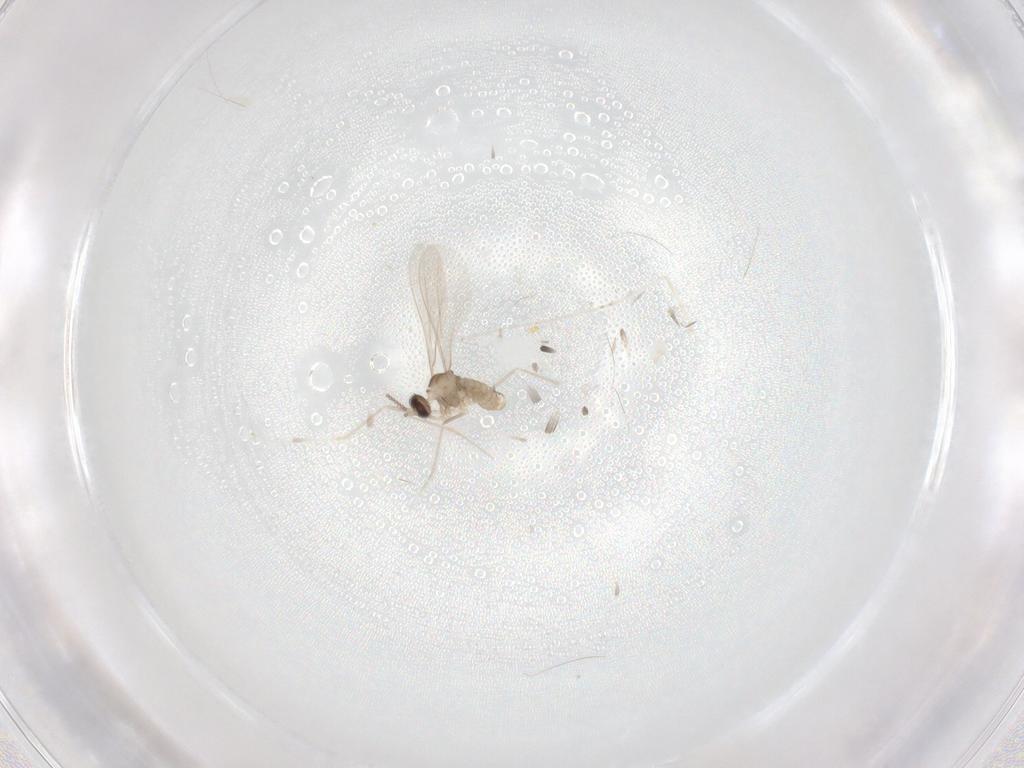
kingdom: Animalia
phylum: Arthropoda
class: Insecta
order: Diptera
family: Cecidomyiidae
